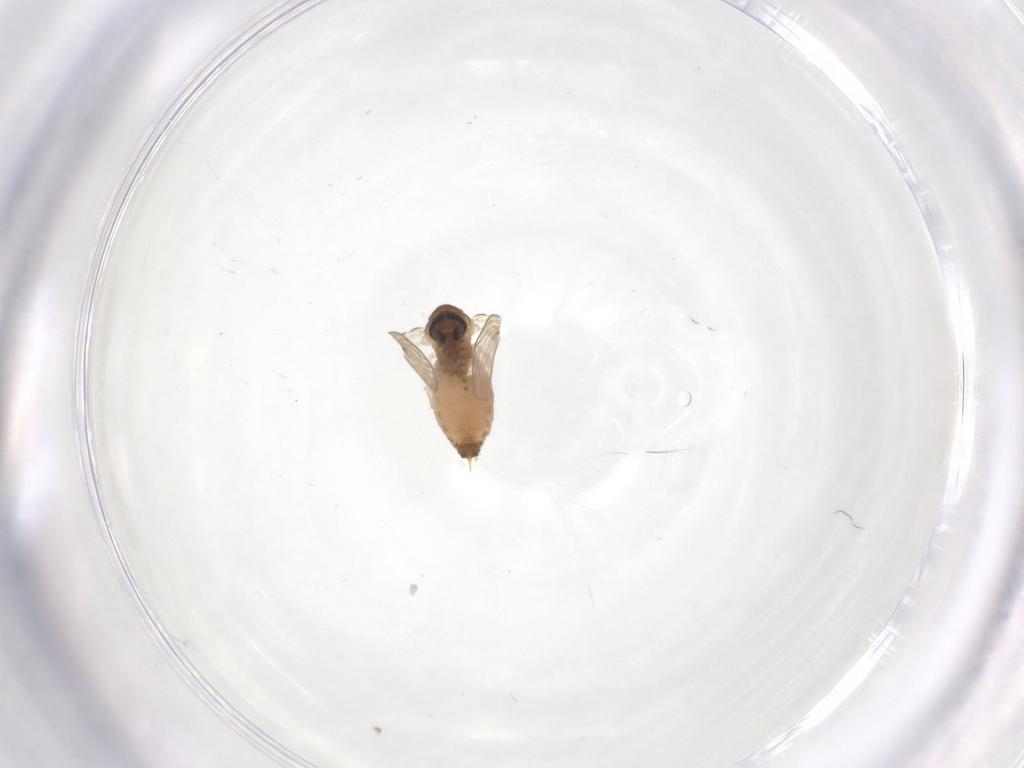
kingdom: Animalia
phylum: Arthropoda
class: Insecta
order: Diptera
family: Psychodidae
